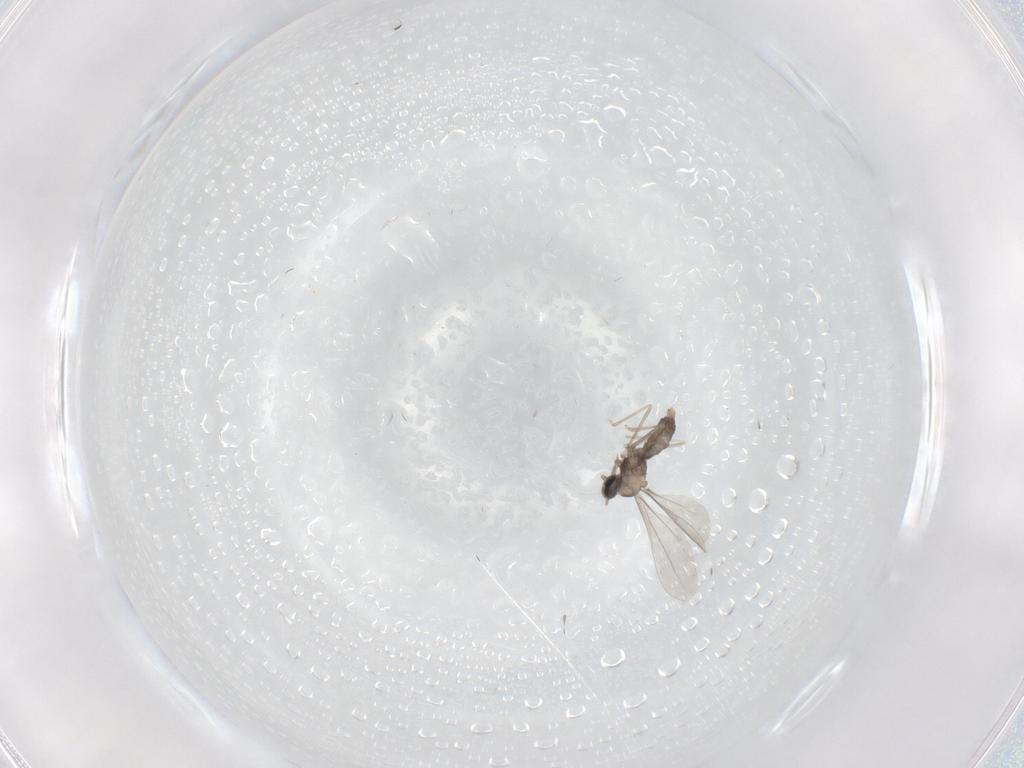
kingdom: Animalia
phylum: Arthropoda
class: Insecta
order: Diptera
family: Cecidomyiidae
